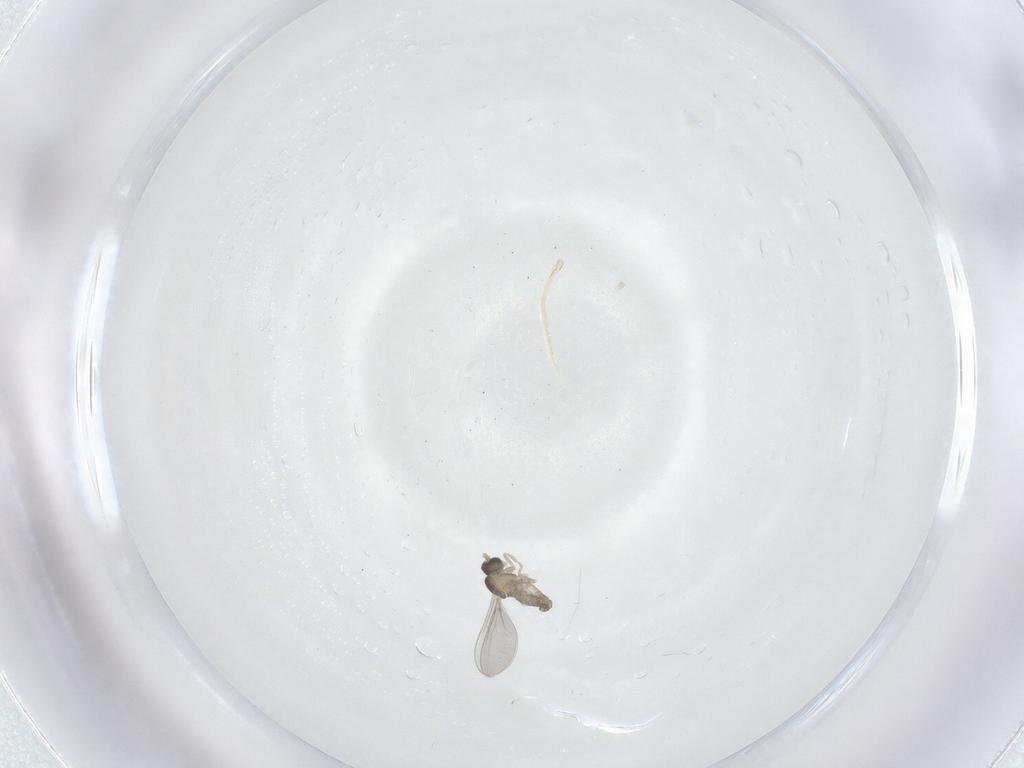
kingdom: Animalia
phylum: Arthropoda
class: Insecta
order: Diptera
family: Cecidomyiidae
